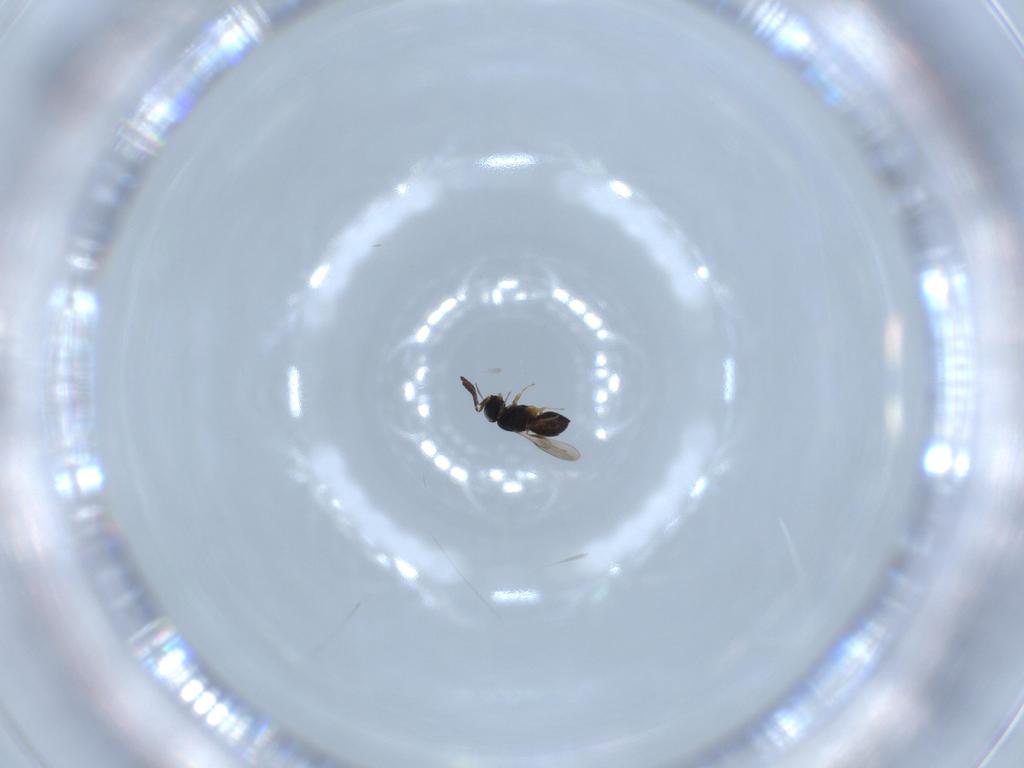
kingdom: Animalia
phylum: Arthropoda
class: Insecta
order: Hymenoptera
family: Scelionidae
